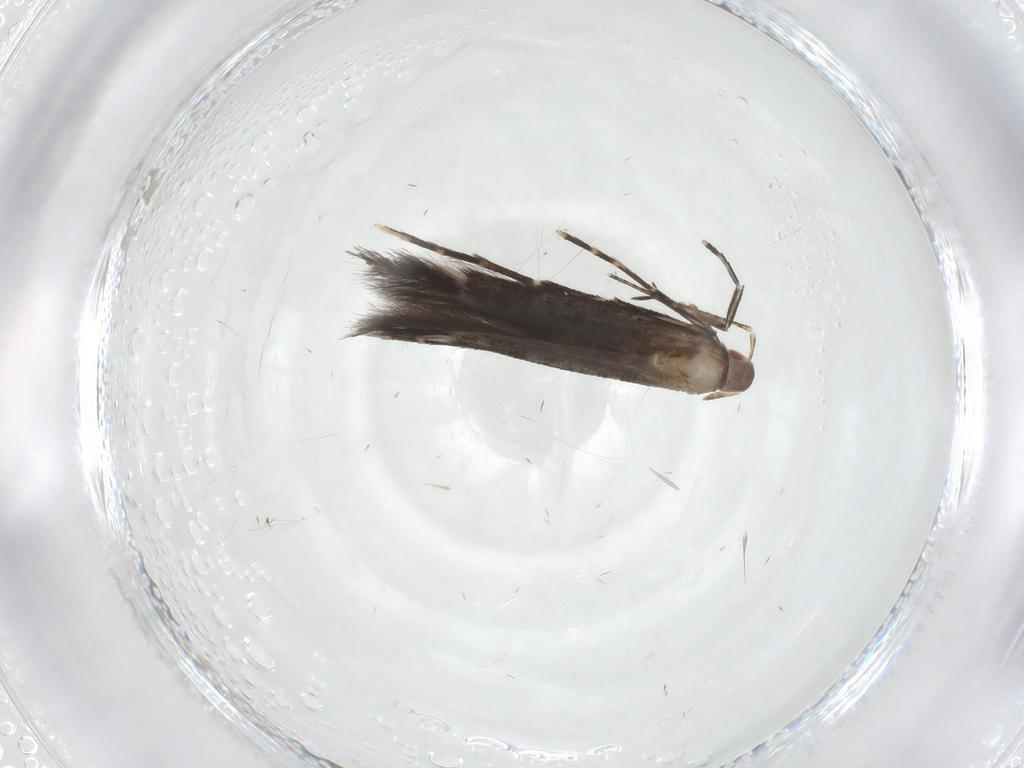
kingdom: Animalia
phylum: Arthropoda
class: Insecta
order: Lepidoptera
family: Cosmopterigidae
